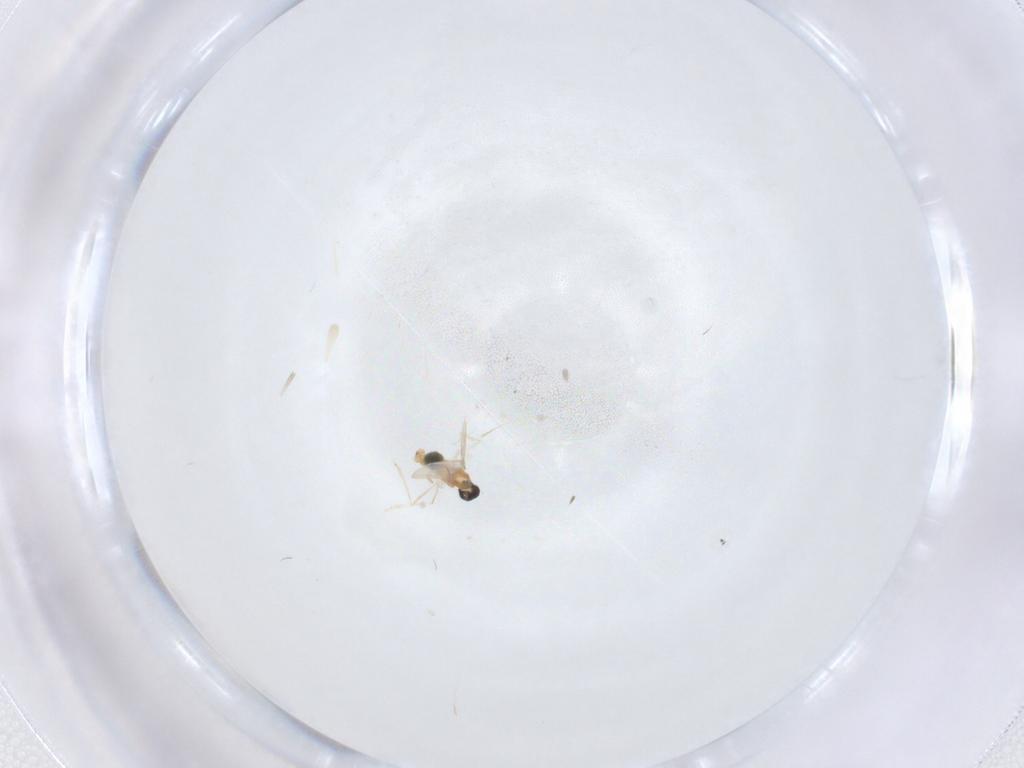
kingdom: Animalia
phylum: Arthropoda
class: Insecta
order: Diptera
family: Cecidomyiidae
